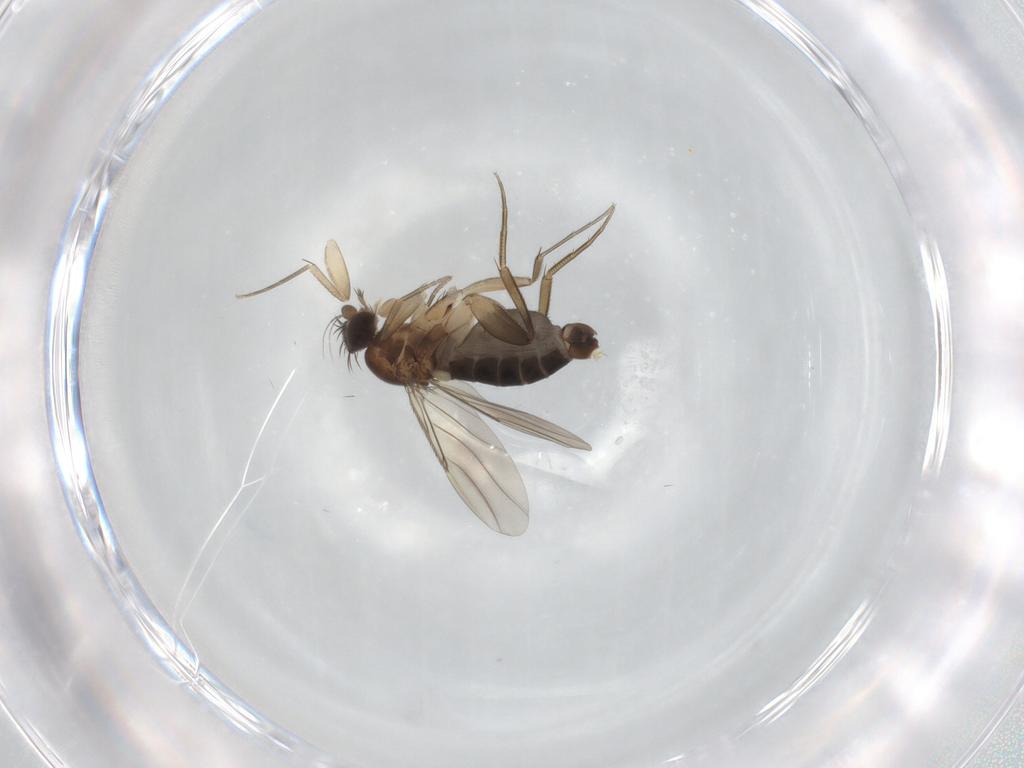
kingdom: Animalia
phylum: Arthropoda
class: Insecta
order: Diptera
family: Phoridae
